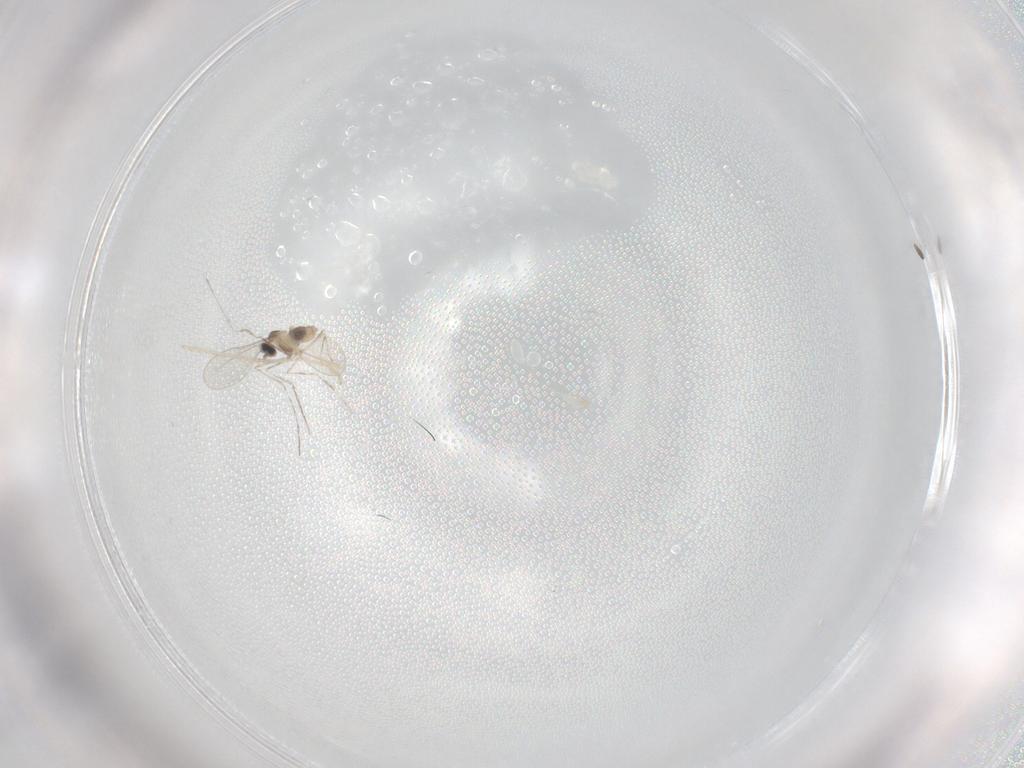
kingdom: Animalia
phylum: Arthropoda
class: Insecta
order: Diptera
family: Cecidomyiidae
